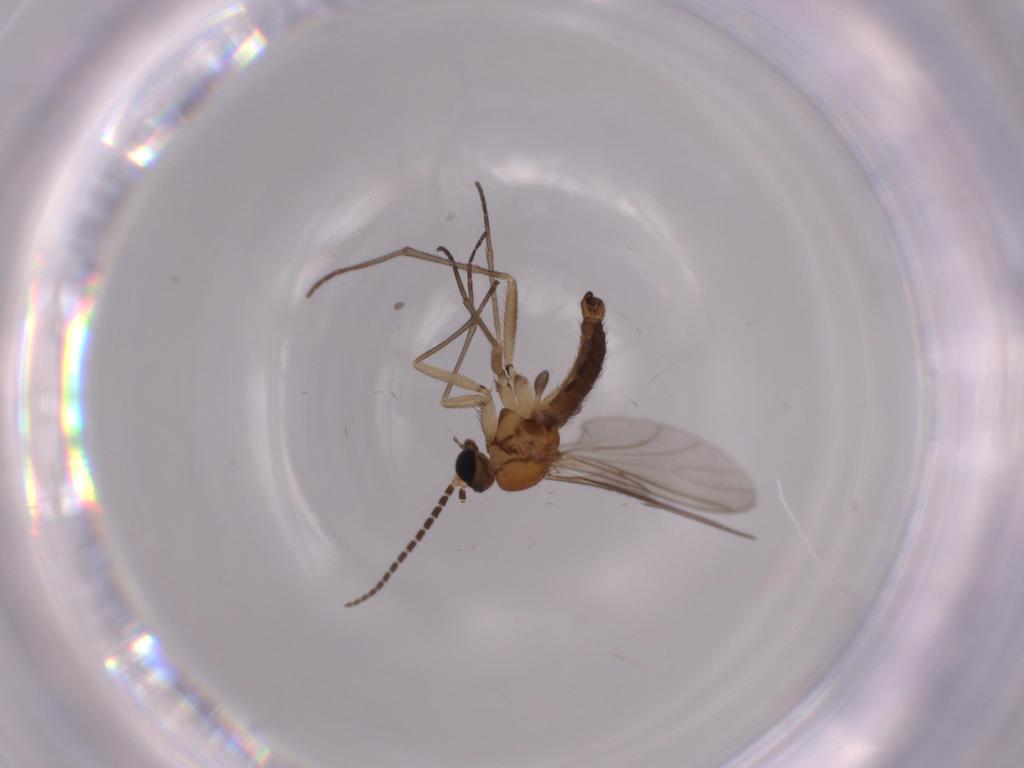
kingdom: Animalia
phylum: Arthropoda
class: Insecta
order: Diptera
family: Sciaridae
